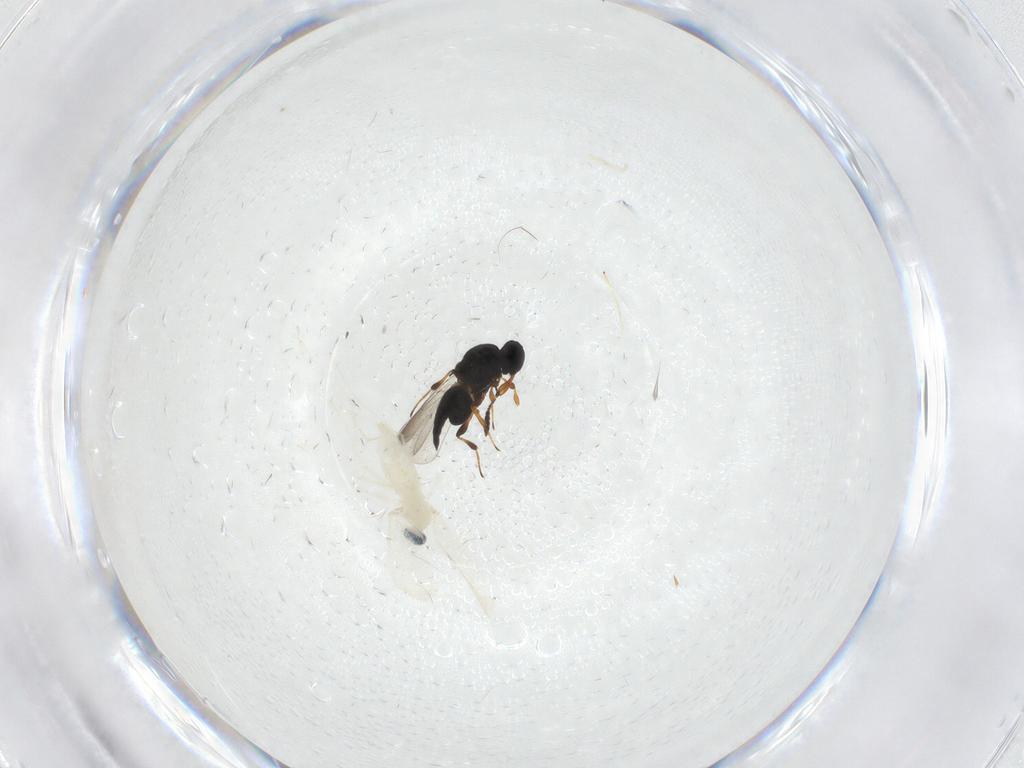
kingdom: Animalia
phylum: Arthropoda
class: Insecta
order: Hymenoptera
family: Platygastridae
